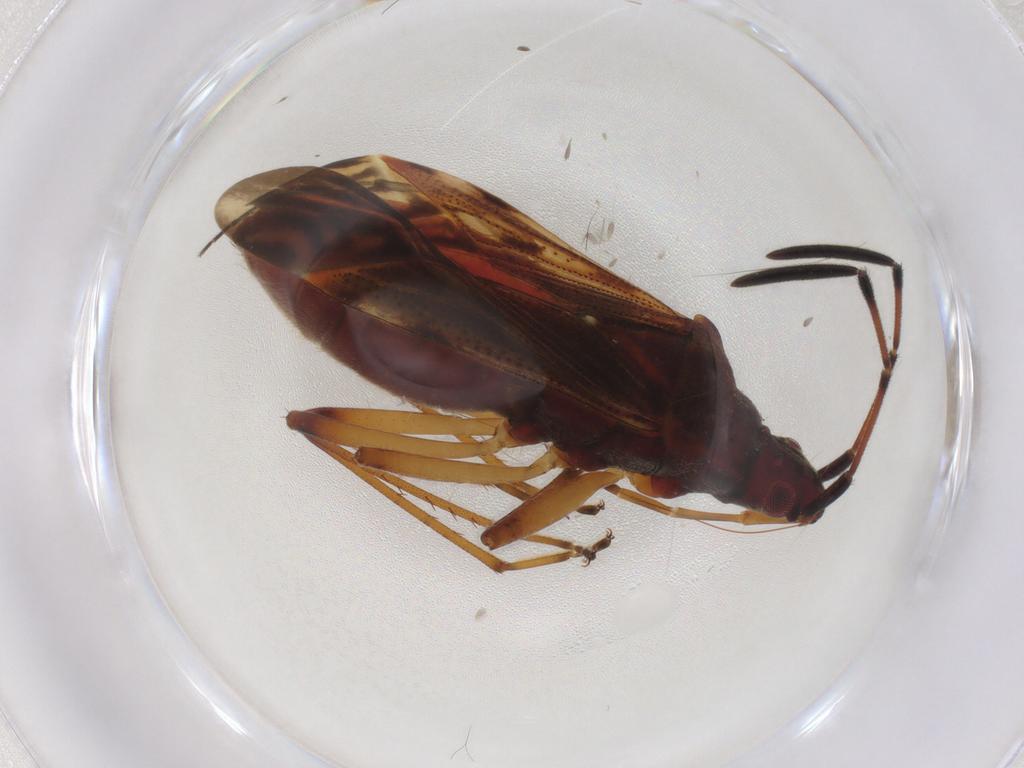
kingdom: Animalia
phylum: Arthropoda
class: Insecta
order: Hemiptera
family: Rhyparochromidae
